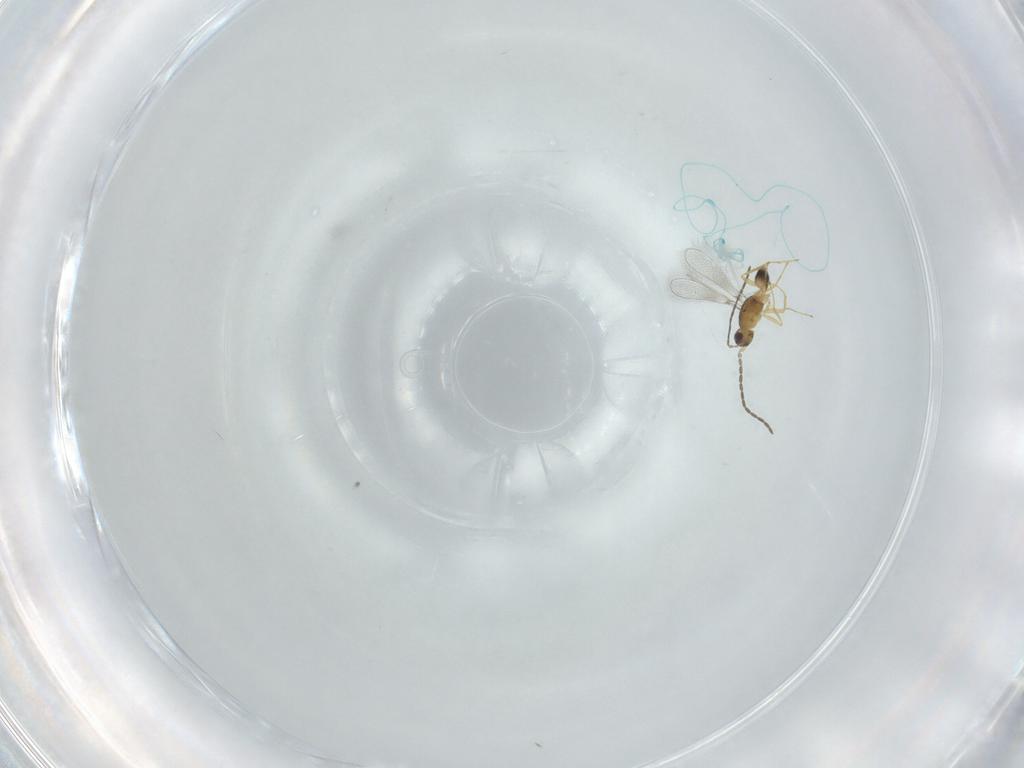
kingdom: Animalia
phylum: Arthropoda
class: Insecta
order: Hymenoptera
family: Mymaridae
